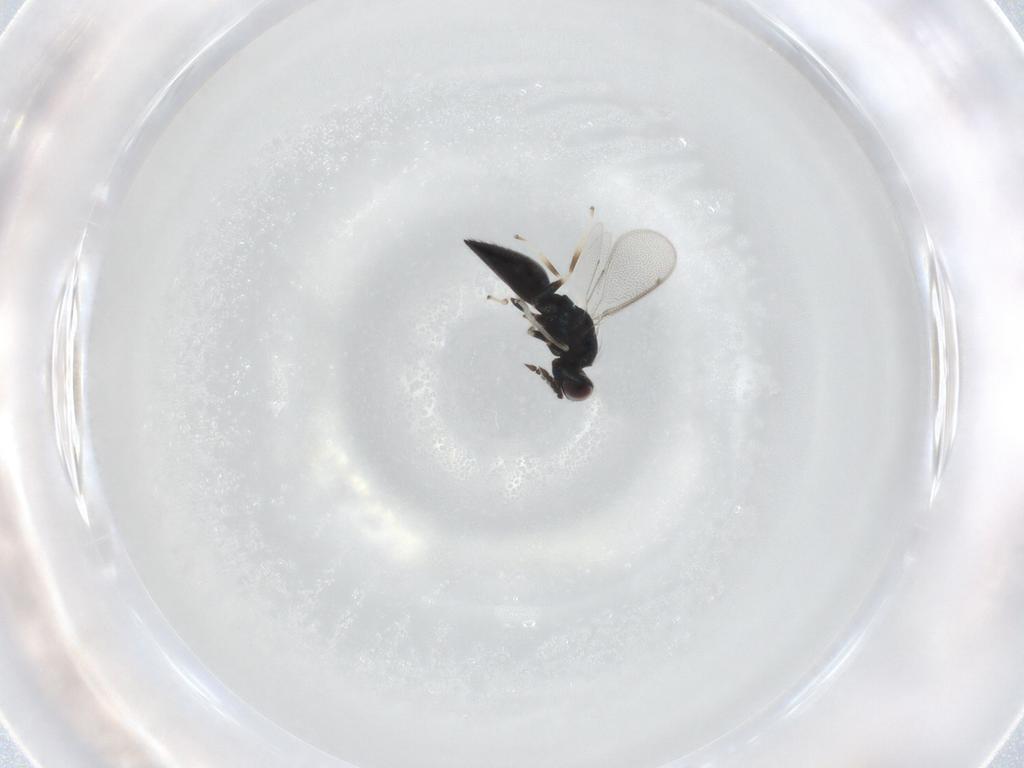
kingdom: Animalia
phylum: Arthropoda
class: Insecta
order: Hymenoptera
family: Eulophidae
